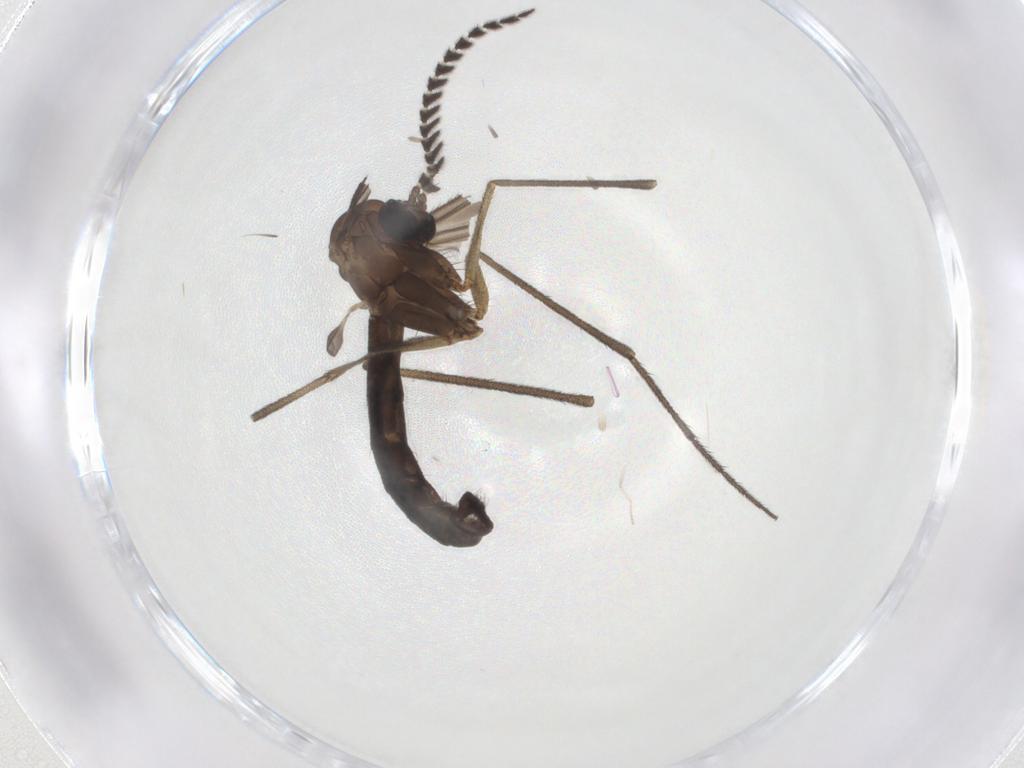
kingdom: Animalia
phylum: Arthropoda
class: Insecta
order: Diptera
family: Ditomyiidae
